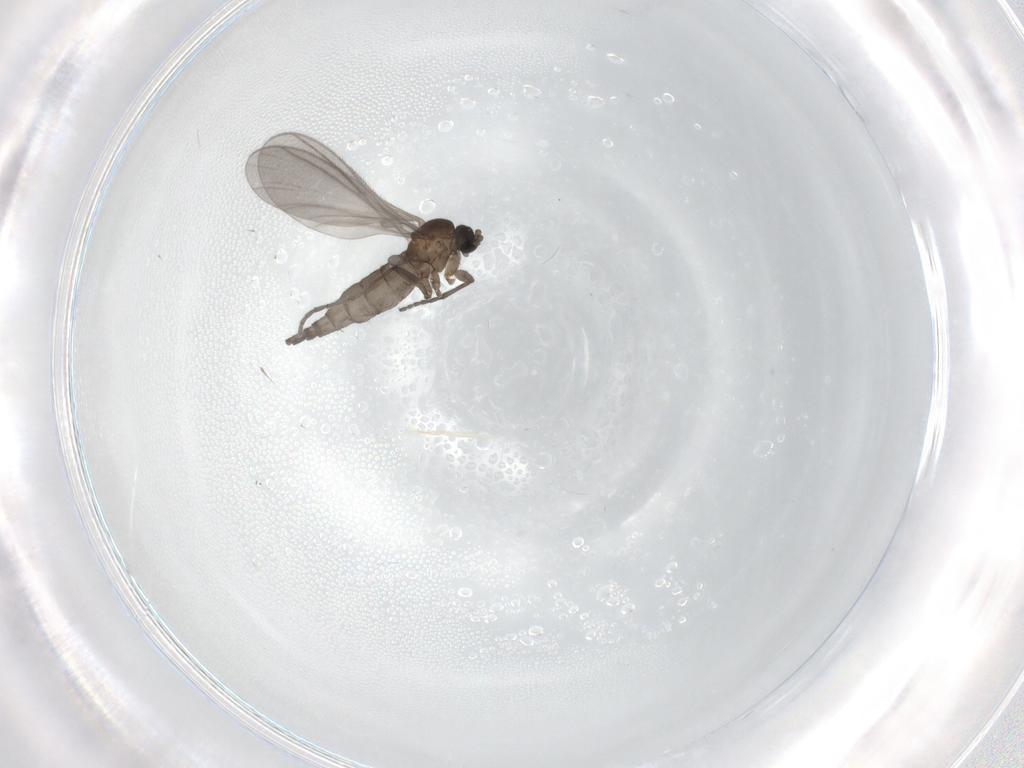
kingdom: Animalia
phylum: Arthropoda
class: Insecta
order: Diptera
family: Sciaridae
